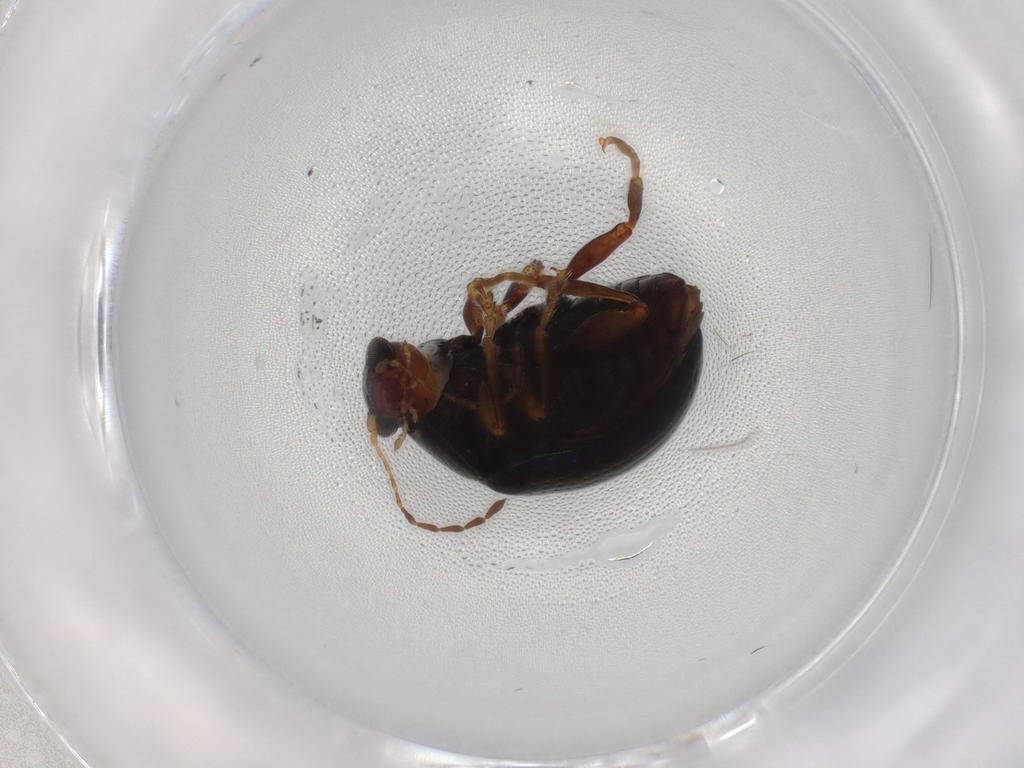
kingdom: Animalia
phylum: Arthropoda
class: Insecta
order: Coleoptera
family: Chrysomelidae
